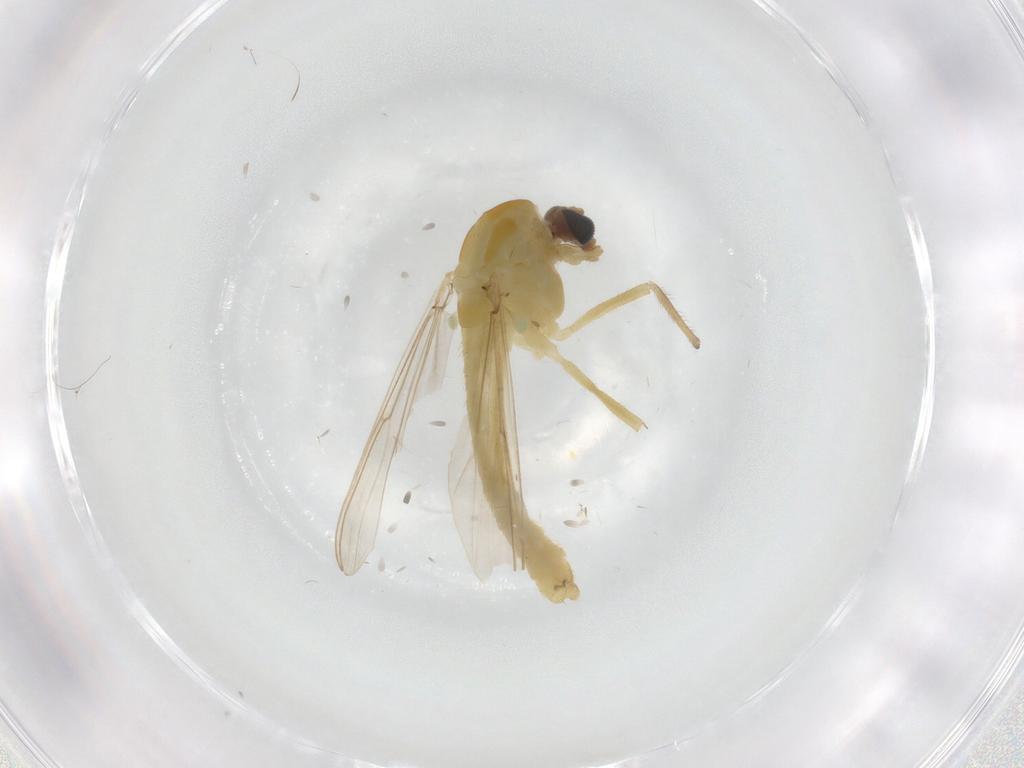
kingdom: Animalia
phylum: Arthropoda
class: Insecta
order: Diptera
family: Chironomidae
